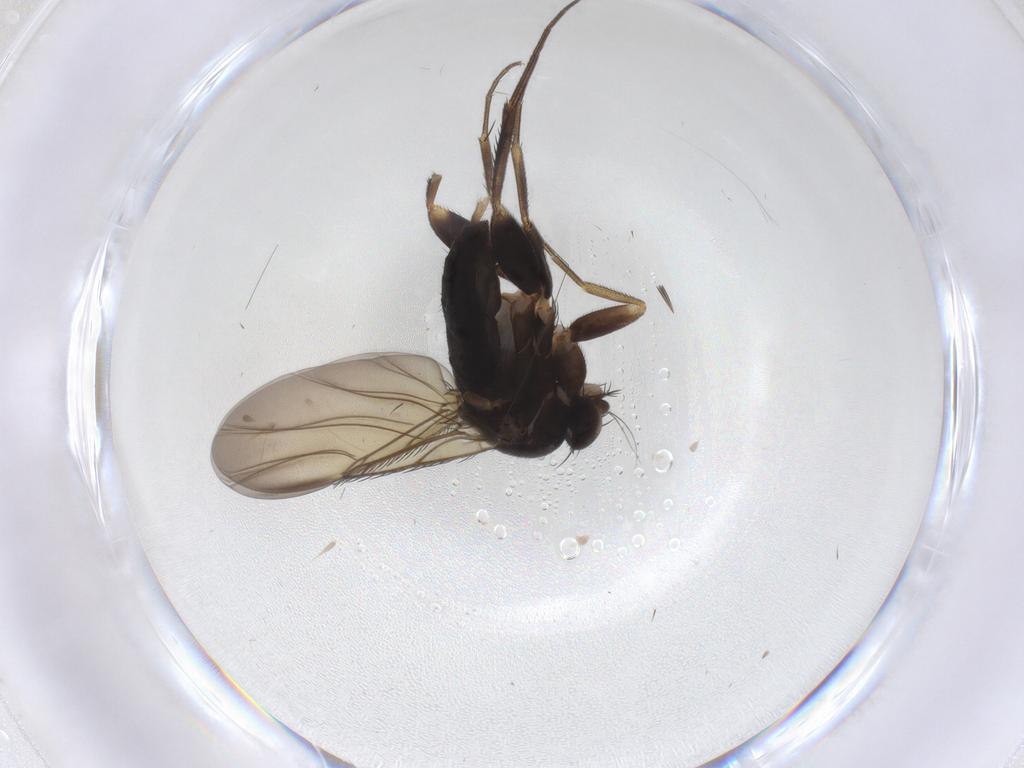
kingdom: Animalia
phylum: Arthropoda
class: Insecta
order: Diptera
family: Phoridae
